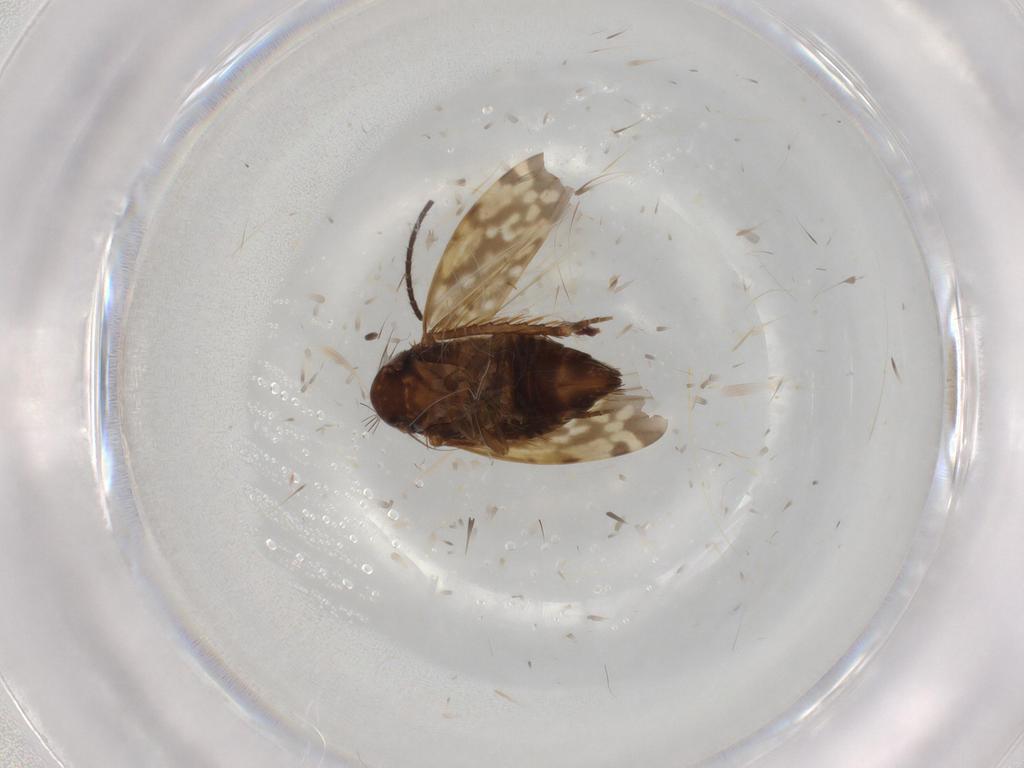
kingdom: Animalia
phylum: Arthropoda
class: Insecta
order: Hemiptera
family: Cicadellidae
